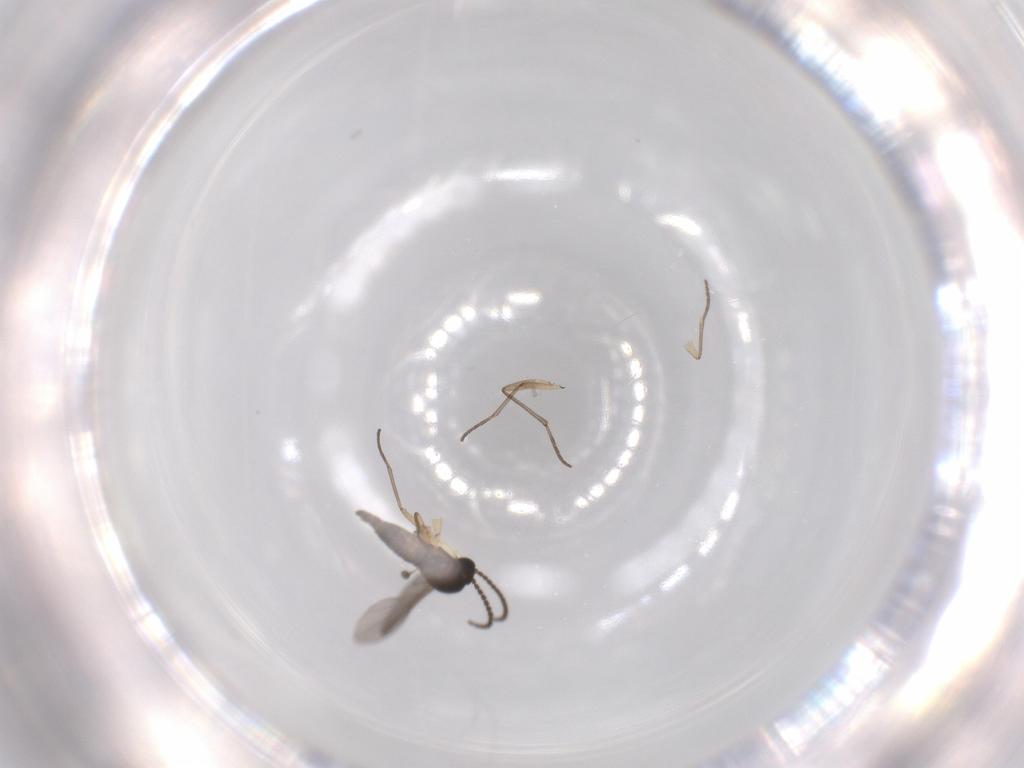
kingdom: Animalia
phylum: Arthropoda
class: Insecta
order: Diptera
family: Sciaridae
